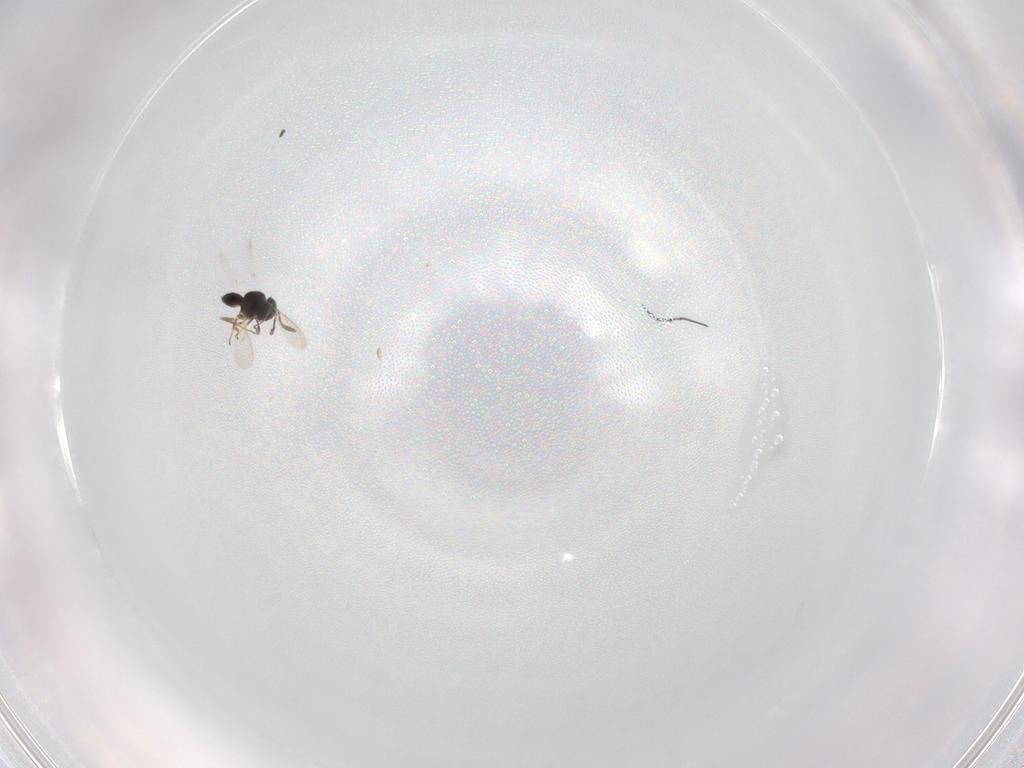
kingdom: Animalia
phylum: Arthropoda
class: Insecta
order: Hymenoptera
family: Scelionidae
